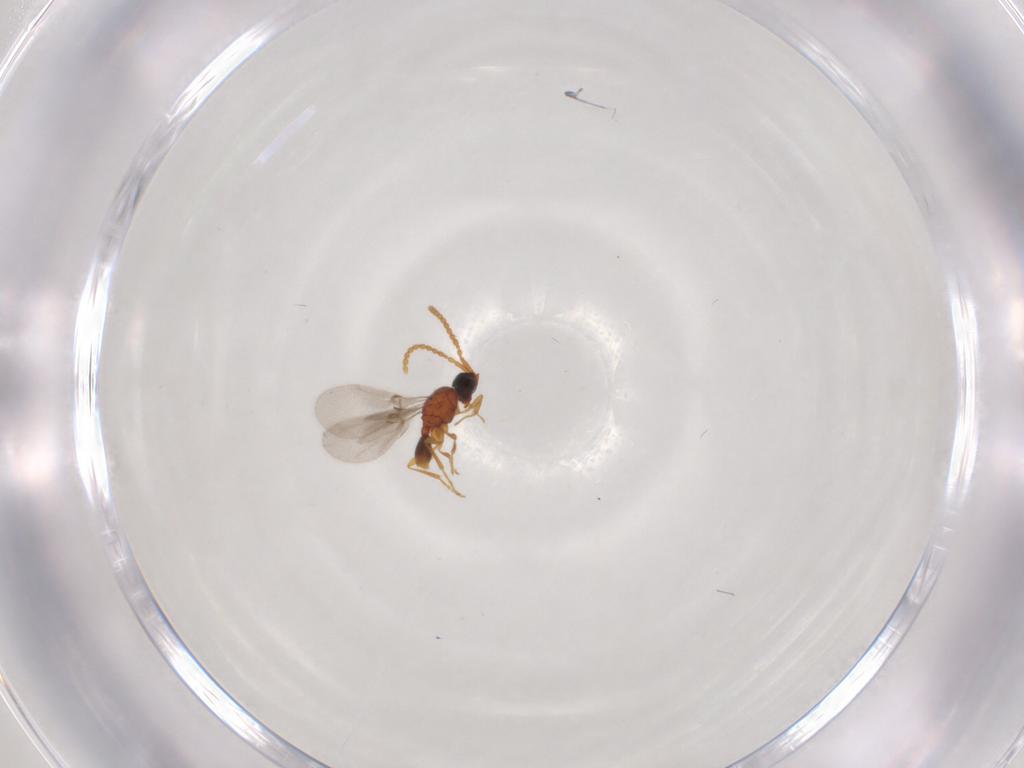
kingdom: Animalia
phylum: Arthropoda
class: Insecta
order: Hymenoptera
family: Diapriidae
